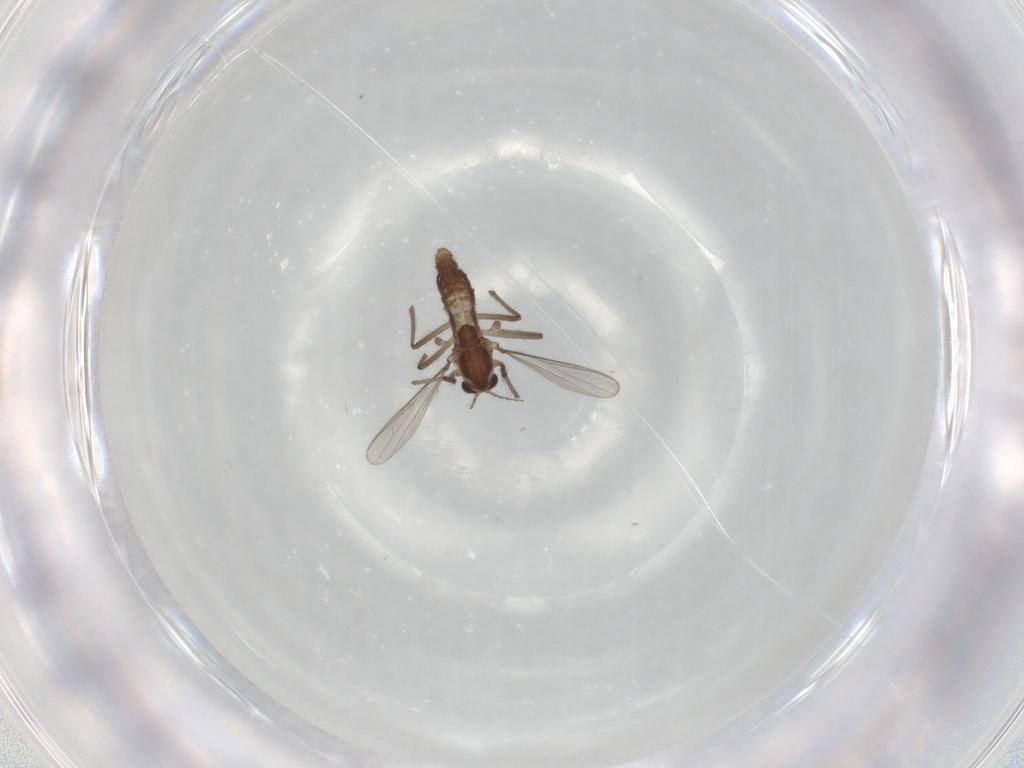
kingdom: Animalia
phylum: Arthropoda
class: Insecta
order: Diptera
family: Chironomidae
